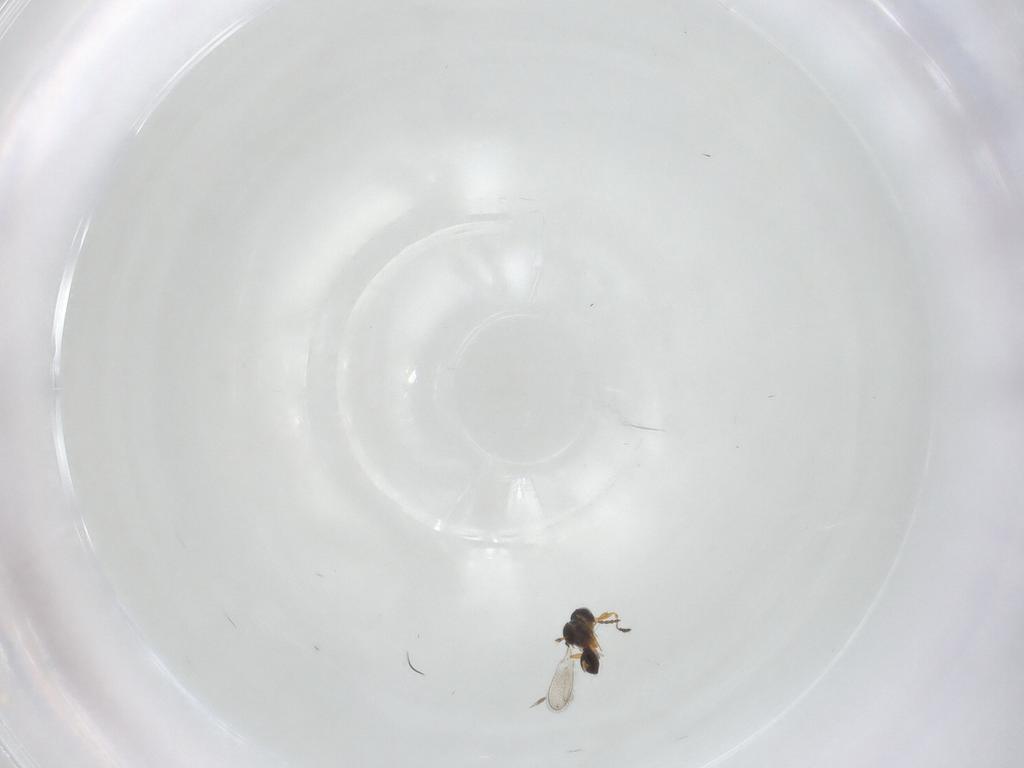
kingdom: Animalia
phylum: Arthropoda
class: Insecta
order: Hymenoptera
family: Platygastridae
